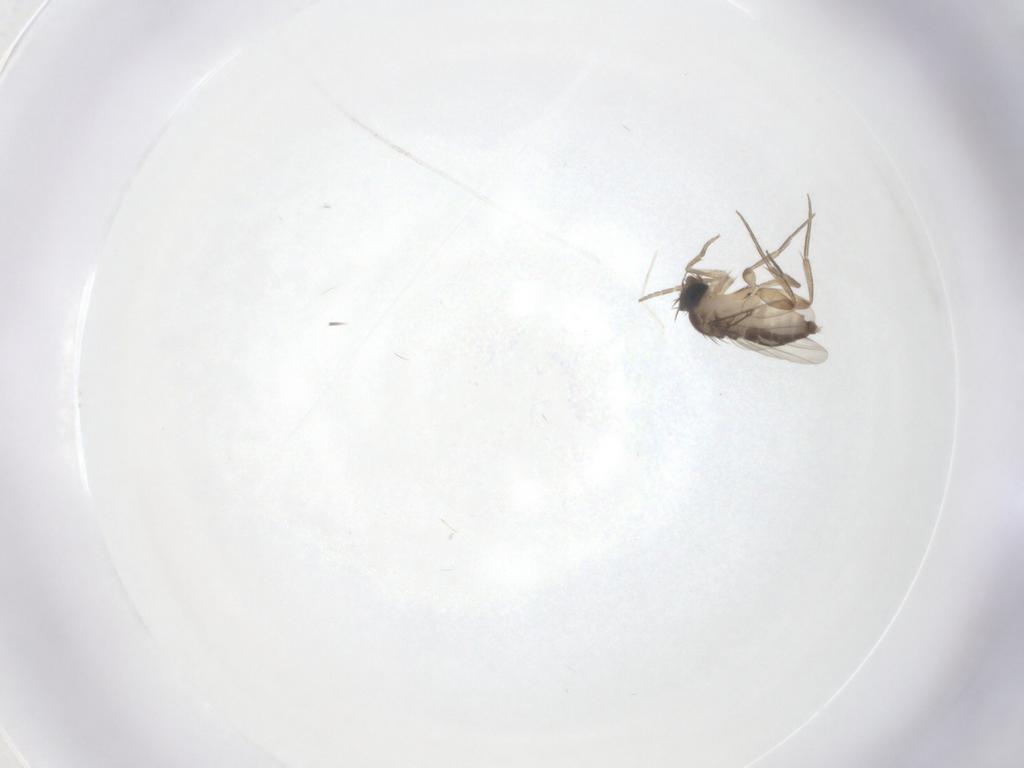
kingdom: Animalia
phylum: Arthropoda
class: Insecta
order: Diptera
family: Phoridae
